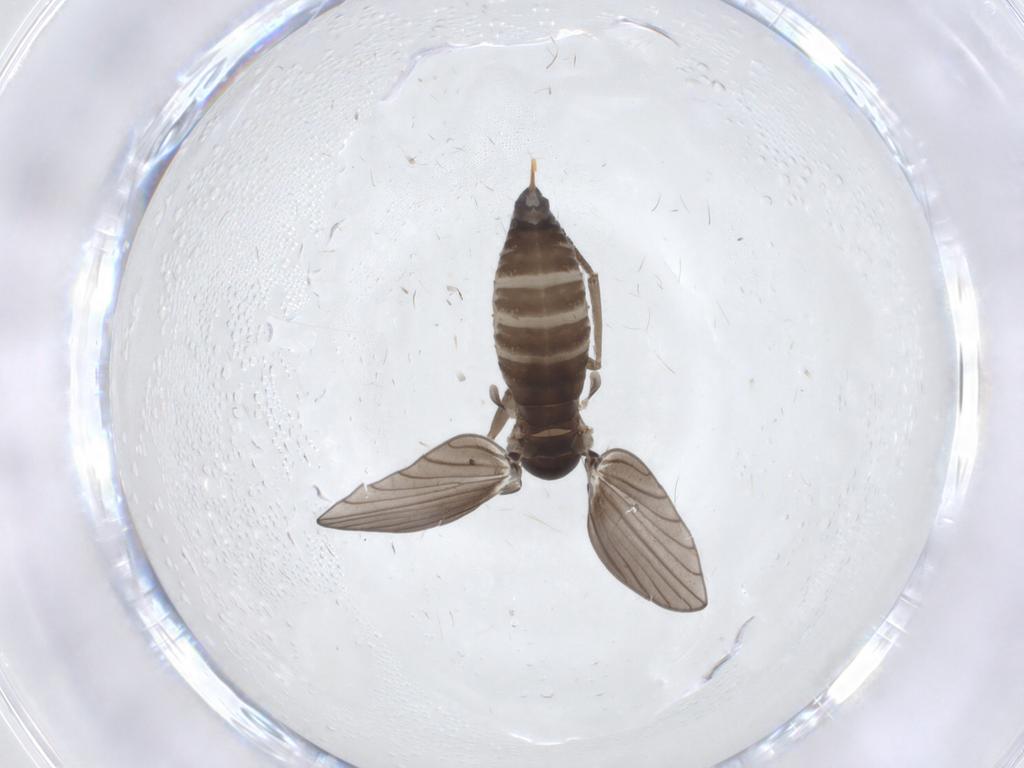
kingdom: Animalia
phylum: Arthropoda
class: Insecta
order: Diptera
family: Psychodidae
